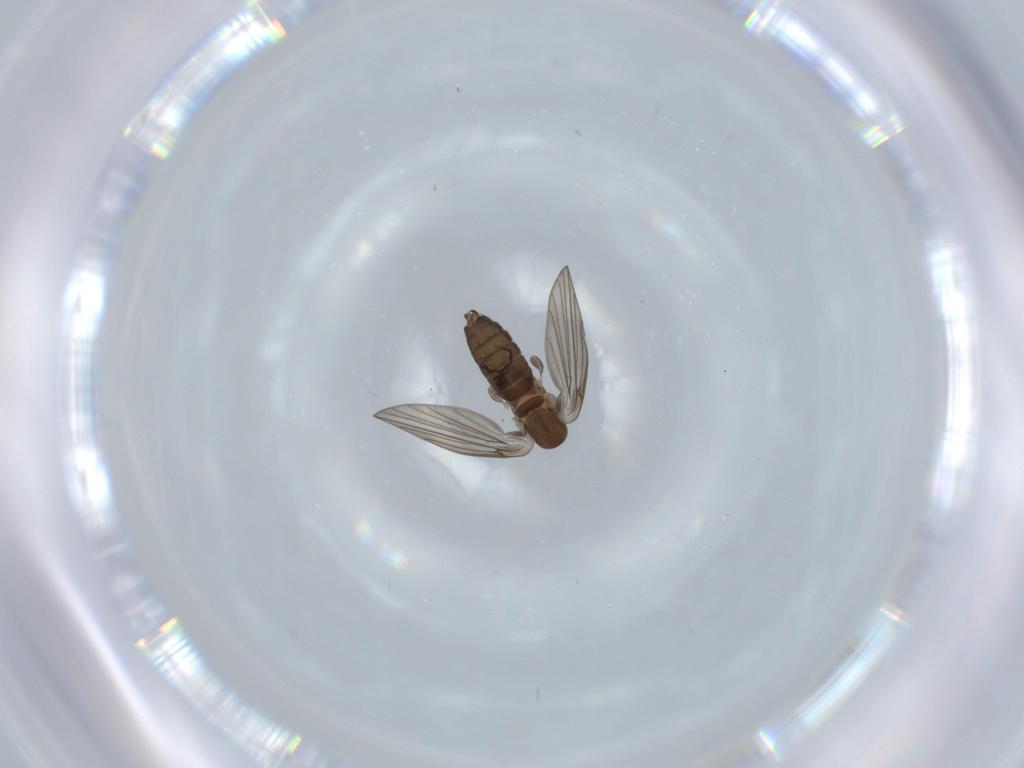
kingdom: Animalia
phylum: Arthropoda
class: Insecta
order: Diptera
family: Psychodidae
